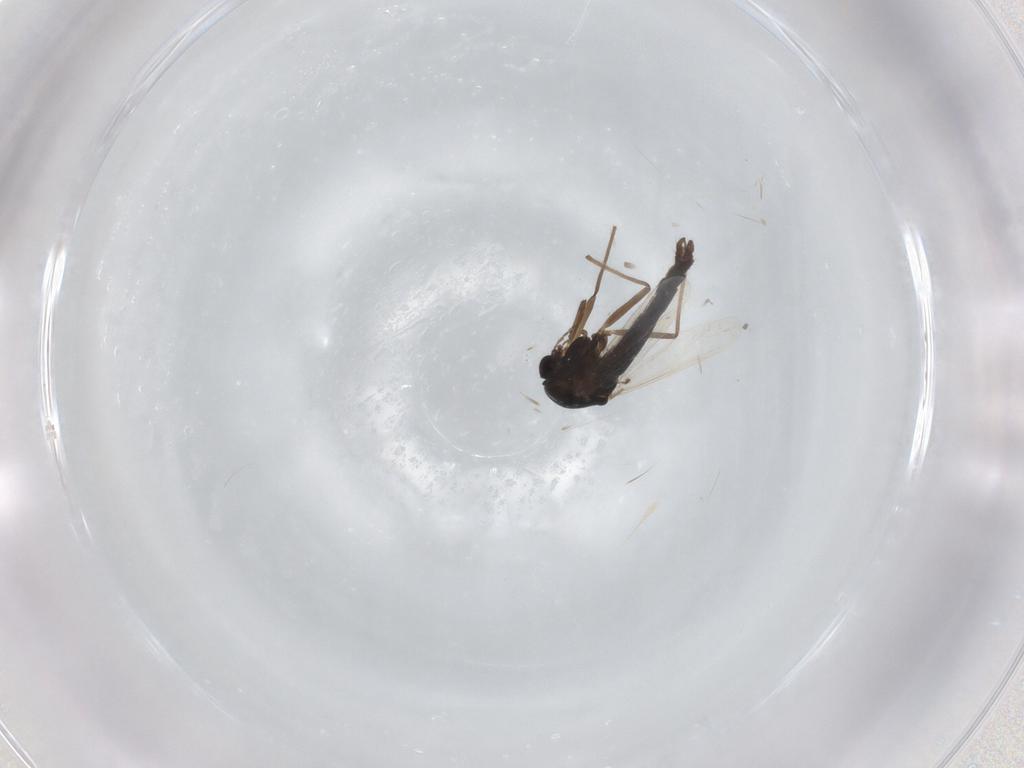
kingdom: Animalia
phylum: Arthropoda
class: Insecta
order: Diptera
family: Chironomidae
